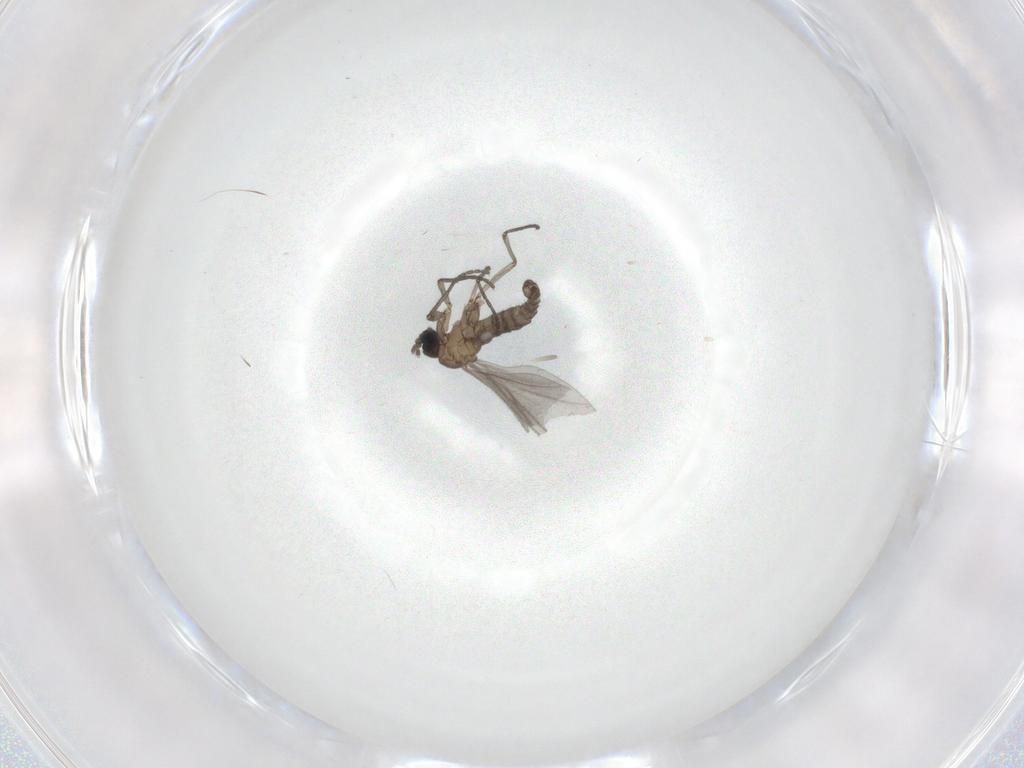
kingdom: Animalia
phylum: Arthropoda
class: Insecta
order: Diptera
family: Sciaridae
